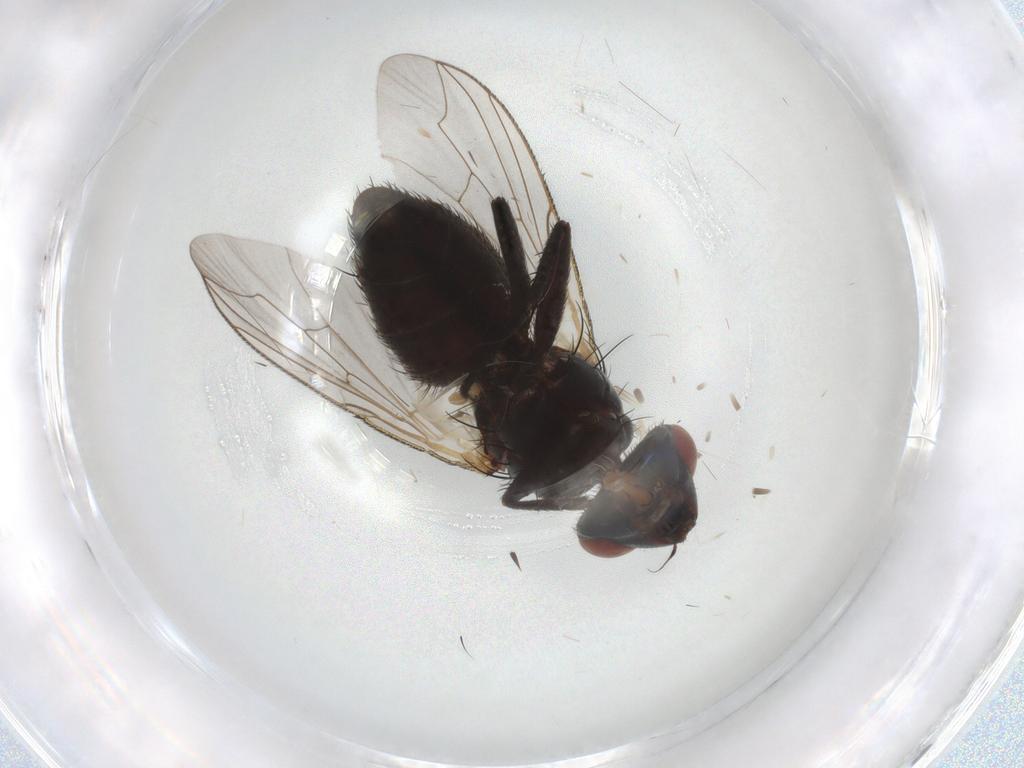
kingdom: Animalia
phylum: Arthropoda
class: Insecta
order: Diptera
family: Sarcophagidae
